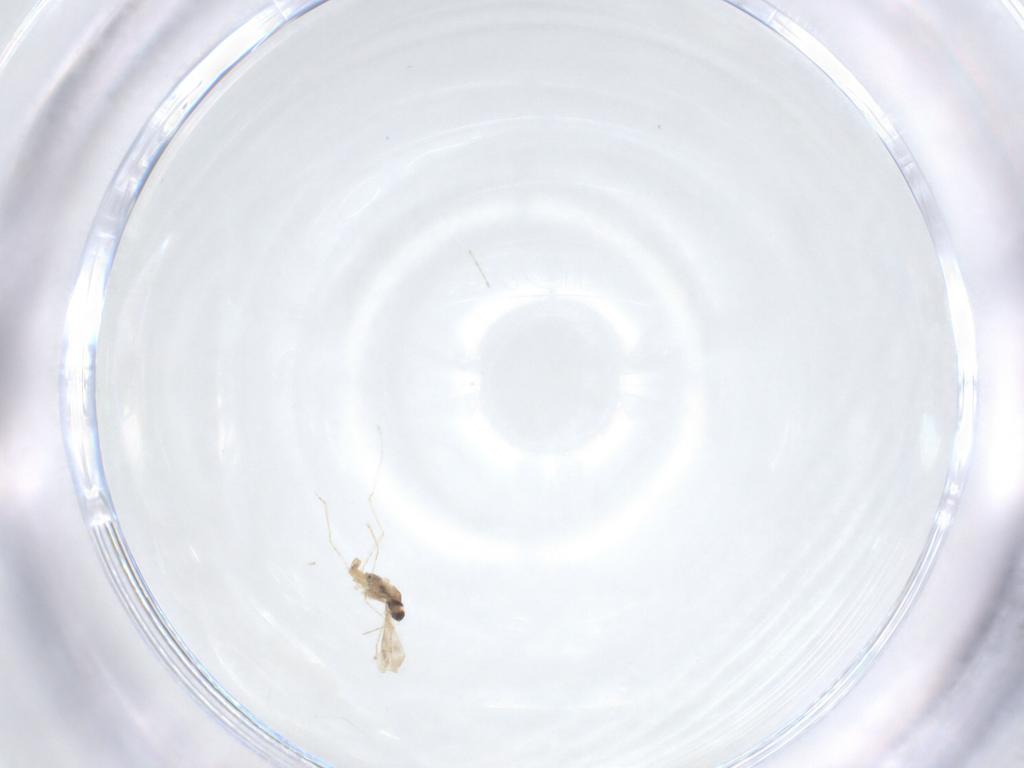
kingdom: Animalia
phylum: Arthropoda
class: Insecta
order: Diptera
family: Cecidomyiidae
